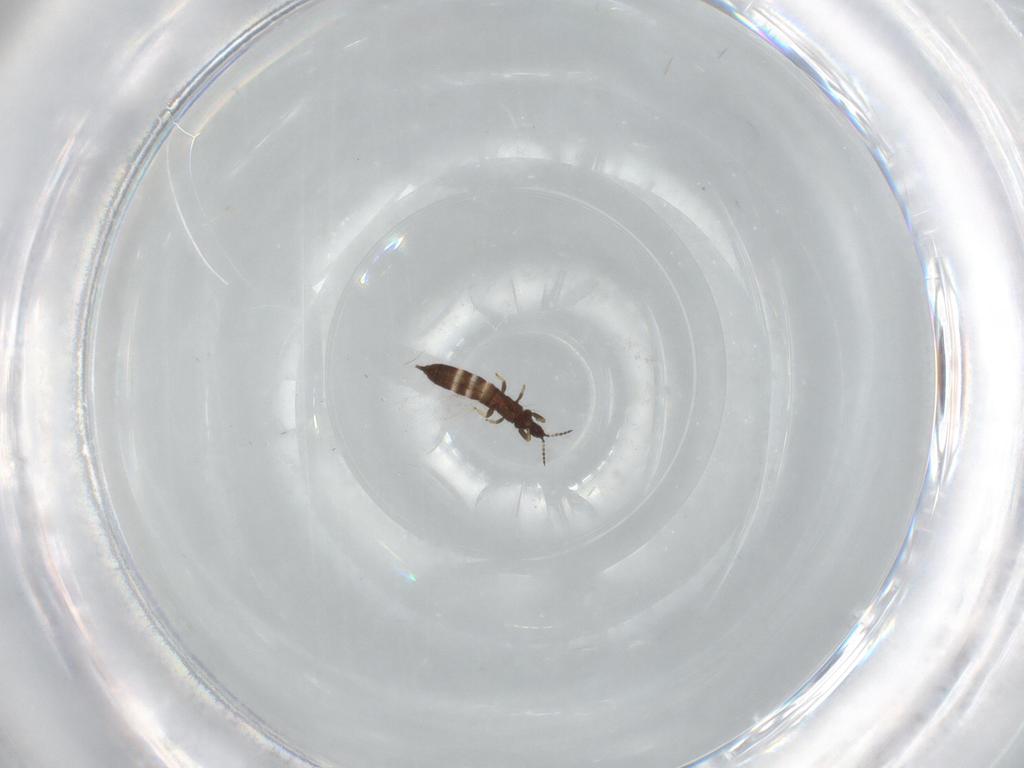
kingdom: Animalia
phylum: Arthropoda
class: Insecta
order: Thysanoptera
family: Phlaeothripidae
